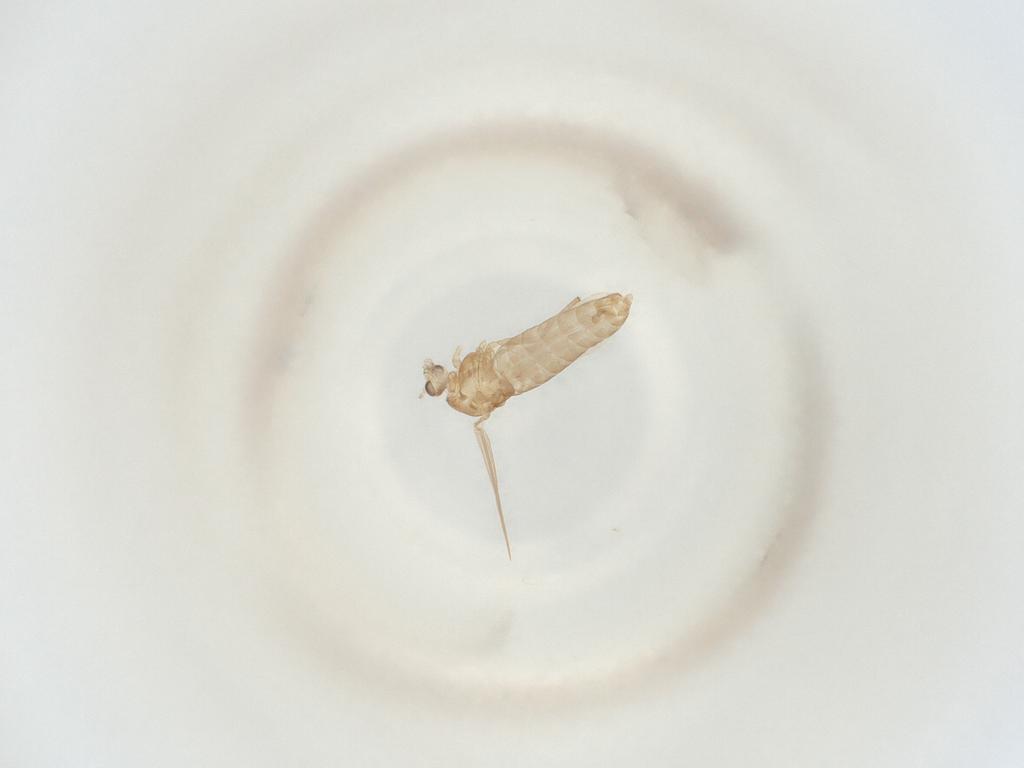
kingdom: Animalia
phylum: Arthropoda
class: Insecta
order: Diptera
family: Chironomidae
